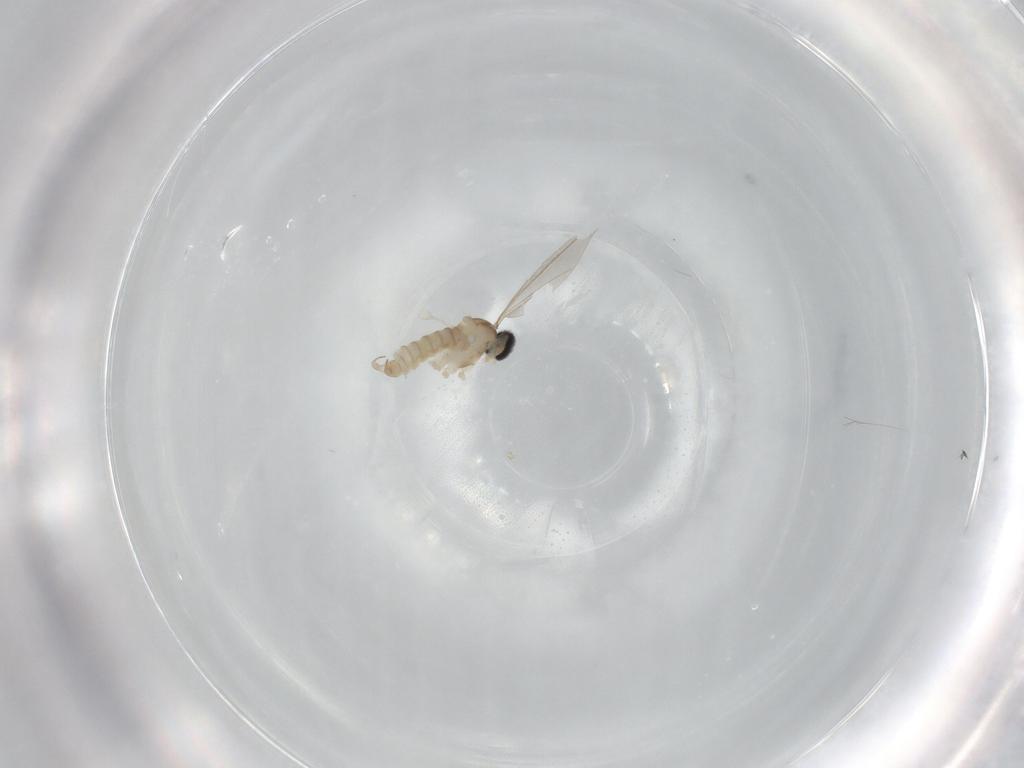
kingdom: Animalia
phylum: Arthropoda
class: Insecta
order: Diptera
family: Cecidomyiidae
